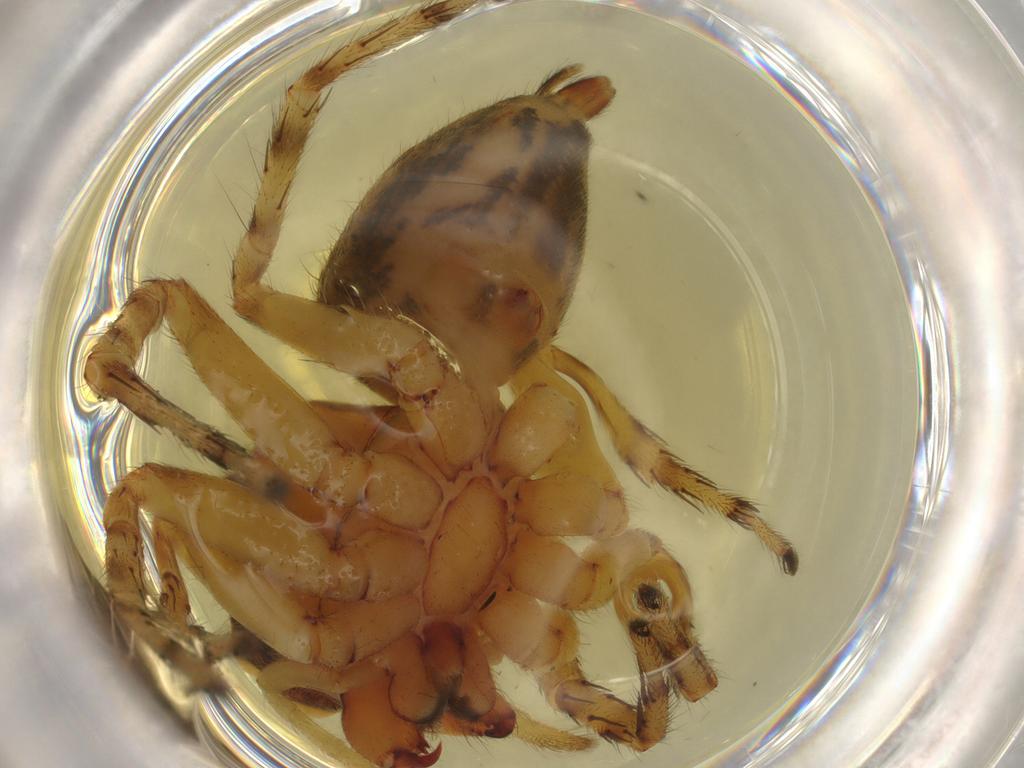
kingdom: Animalia
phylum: Arthropoda
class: Arachnida
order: Araneae
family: Salticidae
